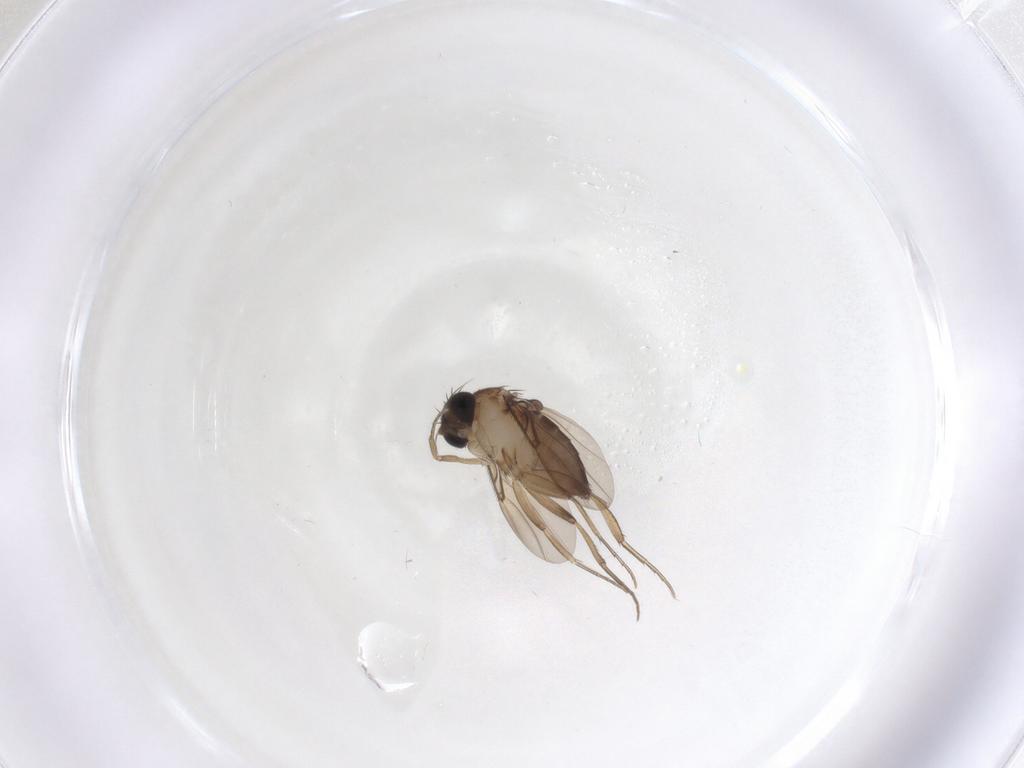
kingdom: Animalia
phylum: Arthropoda
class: Insecta
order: Diptera
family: Phoridae
